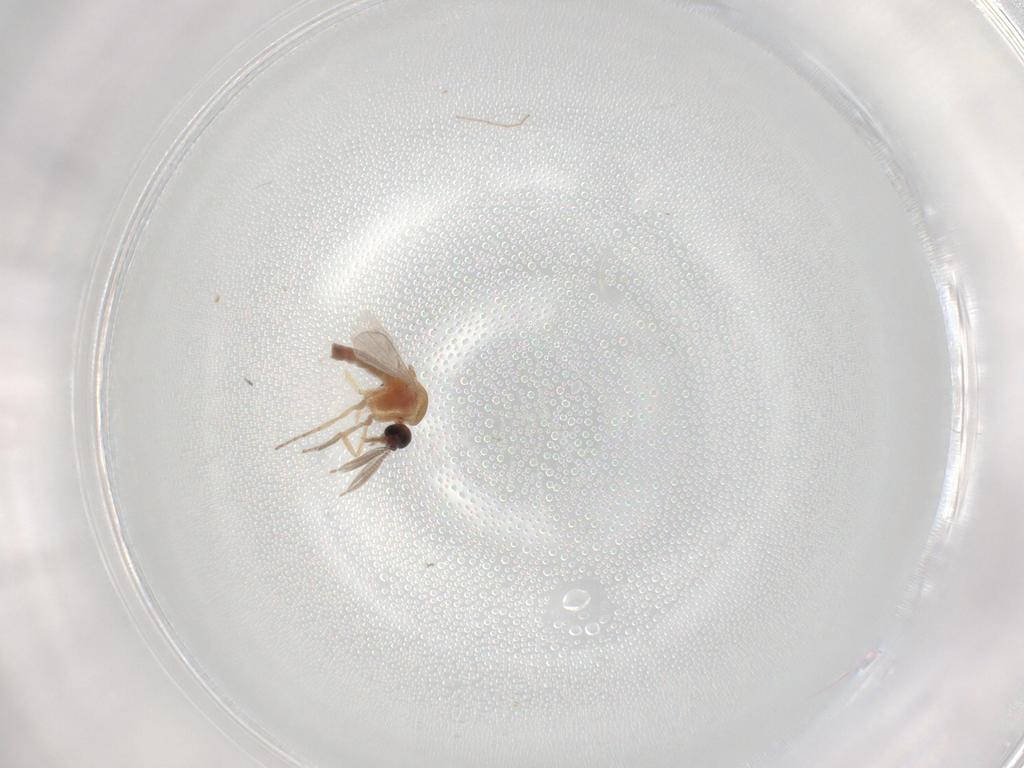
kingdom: Animalia
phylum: Arthropoda
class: Insecta
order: Diptera
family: Ceratopogonidae
